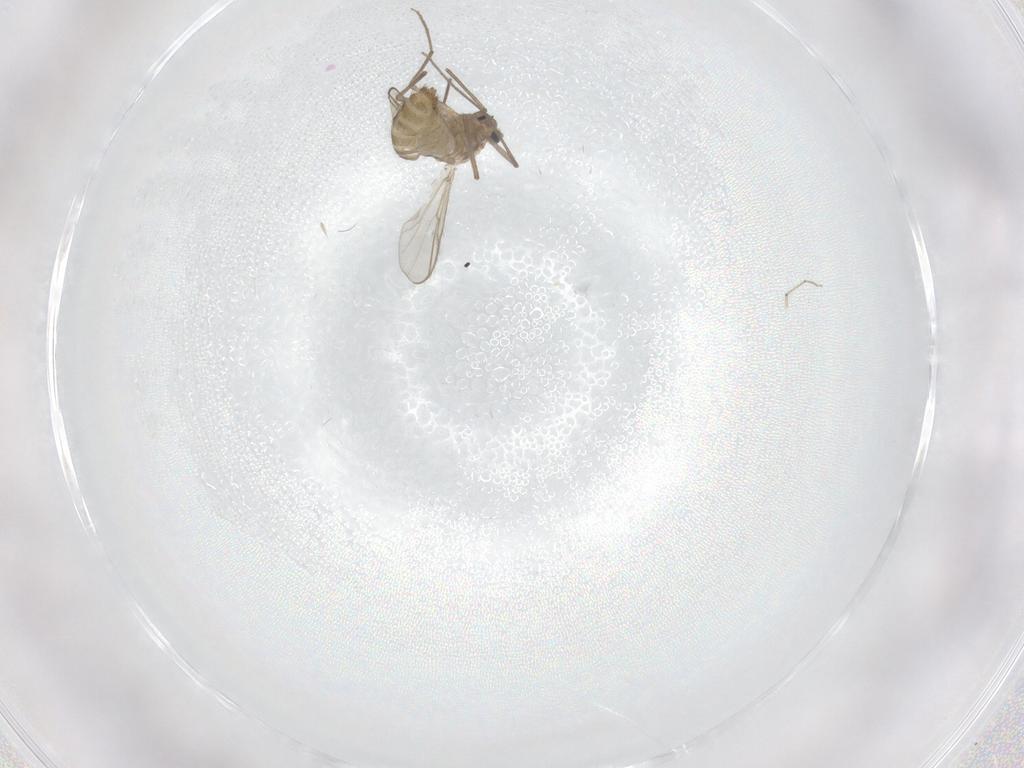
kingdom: Animalia
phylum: Arthropoda
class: Insecta
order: Diptera
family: Chironomidae
